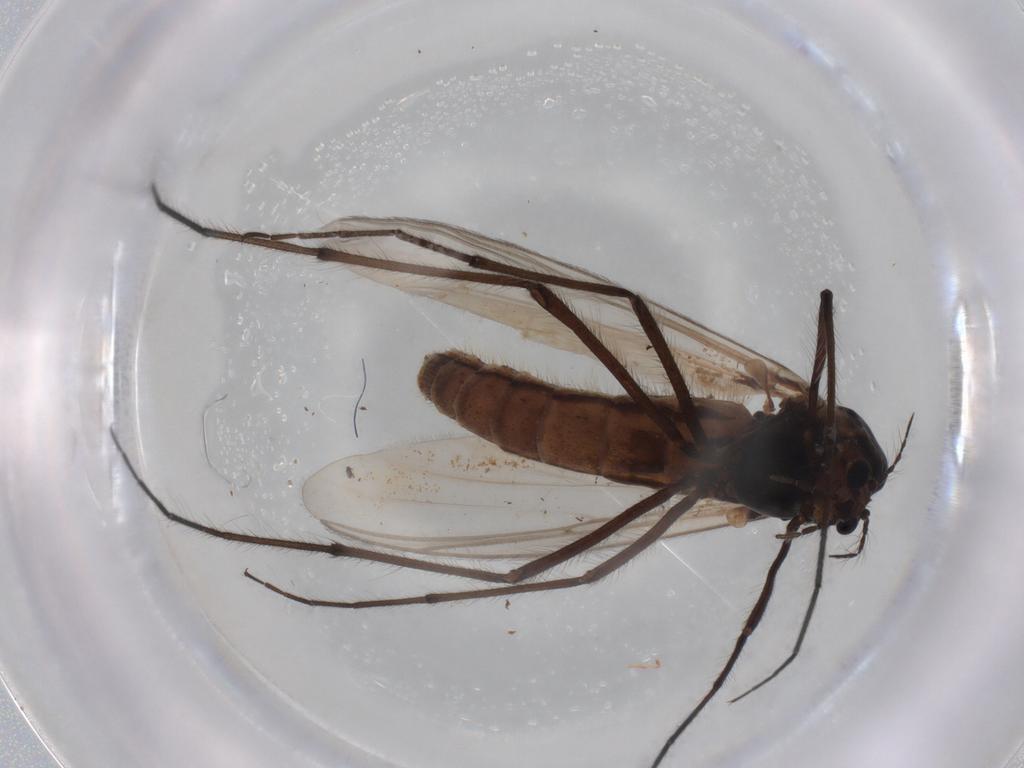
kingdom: Animalia
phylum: Arthropoda
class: Insecta
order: Diptera
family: Chironomidae
